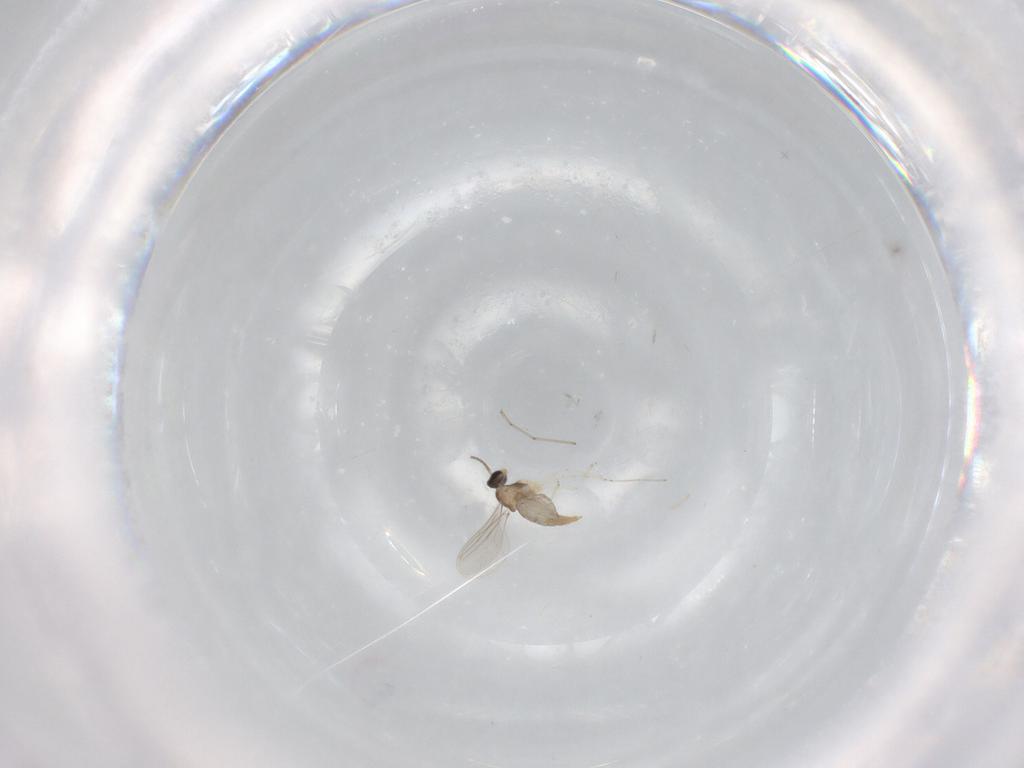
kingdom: Animalia
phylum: Arthropoda
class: Insecta
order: Diptera
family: Cecidomyiidae
